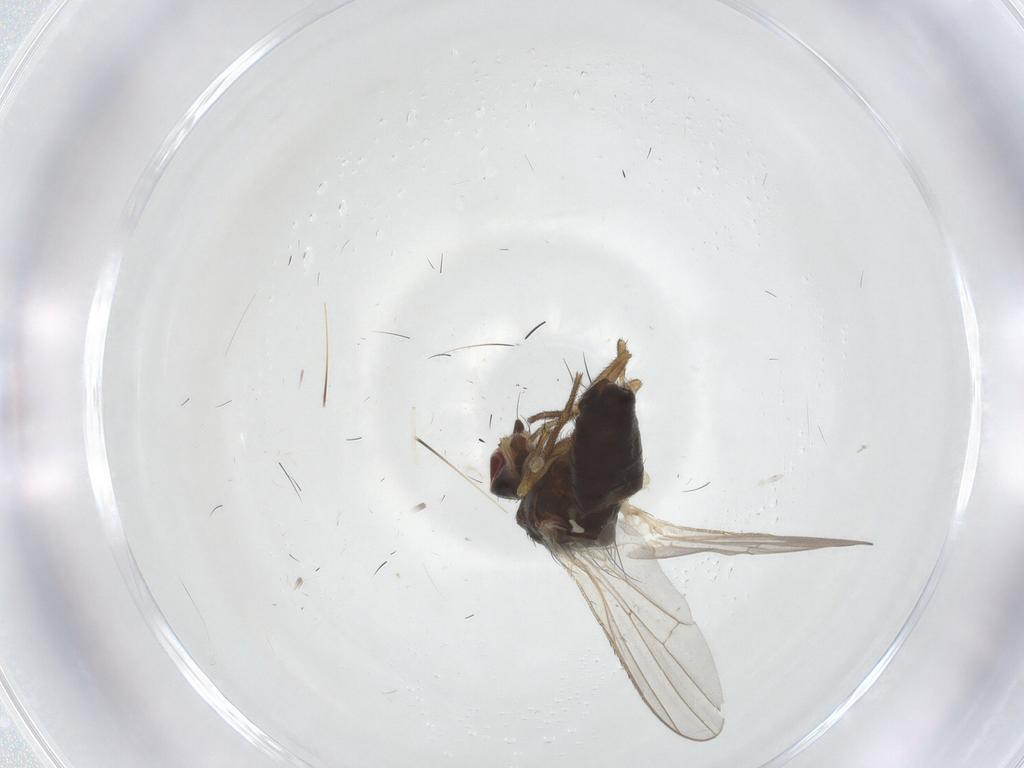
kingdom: Animalia
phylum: Arthropoda
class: Insecta
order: Diptera
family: Heleomyzidae
